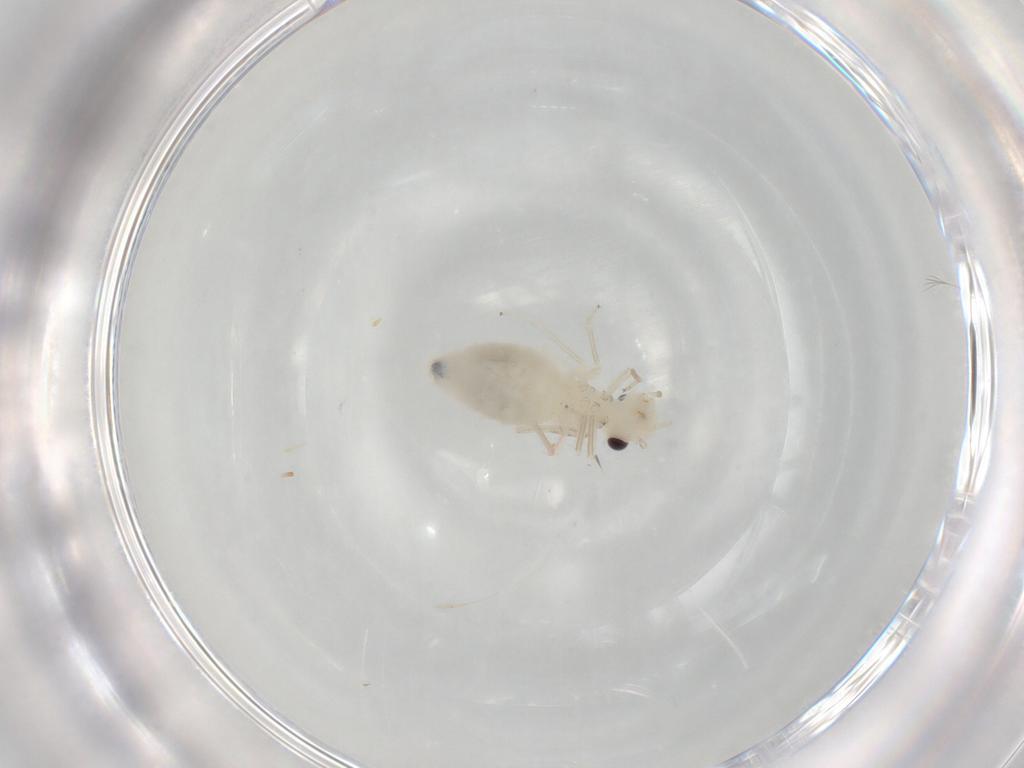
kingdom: Animalia
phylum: Arthropoda
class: Insecta
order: Psocodea
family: Caeciliusidae
